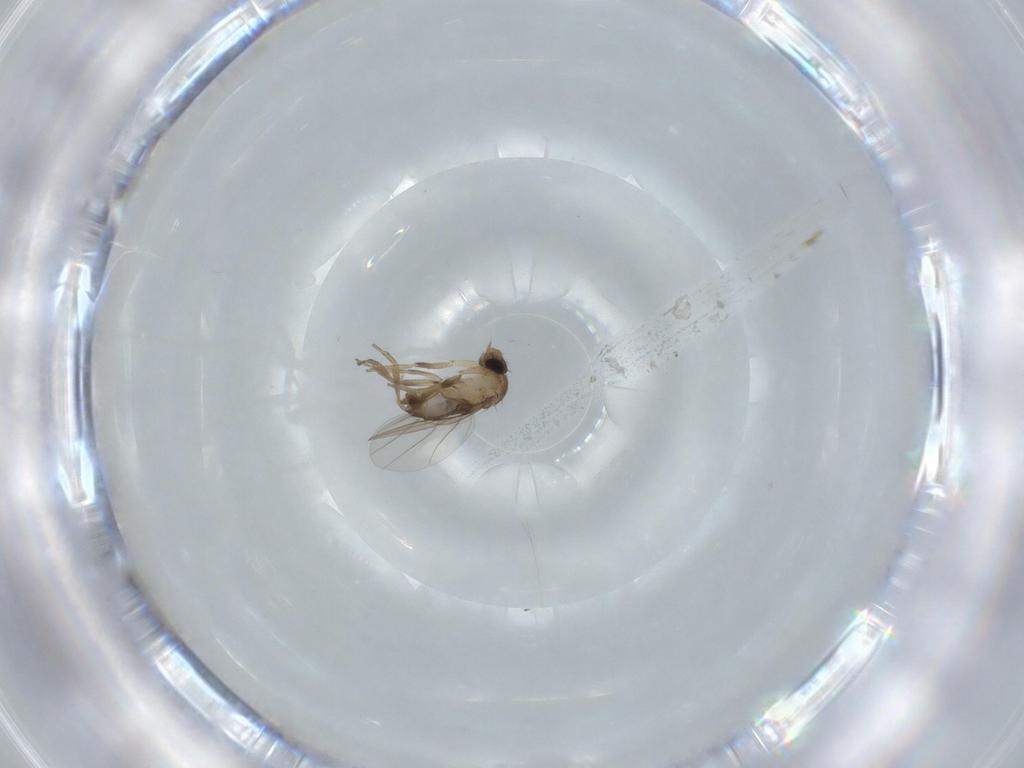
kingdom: Animalia
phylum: Arthropoda
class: Insecta
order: Diptera
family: Phoridae
